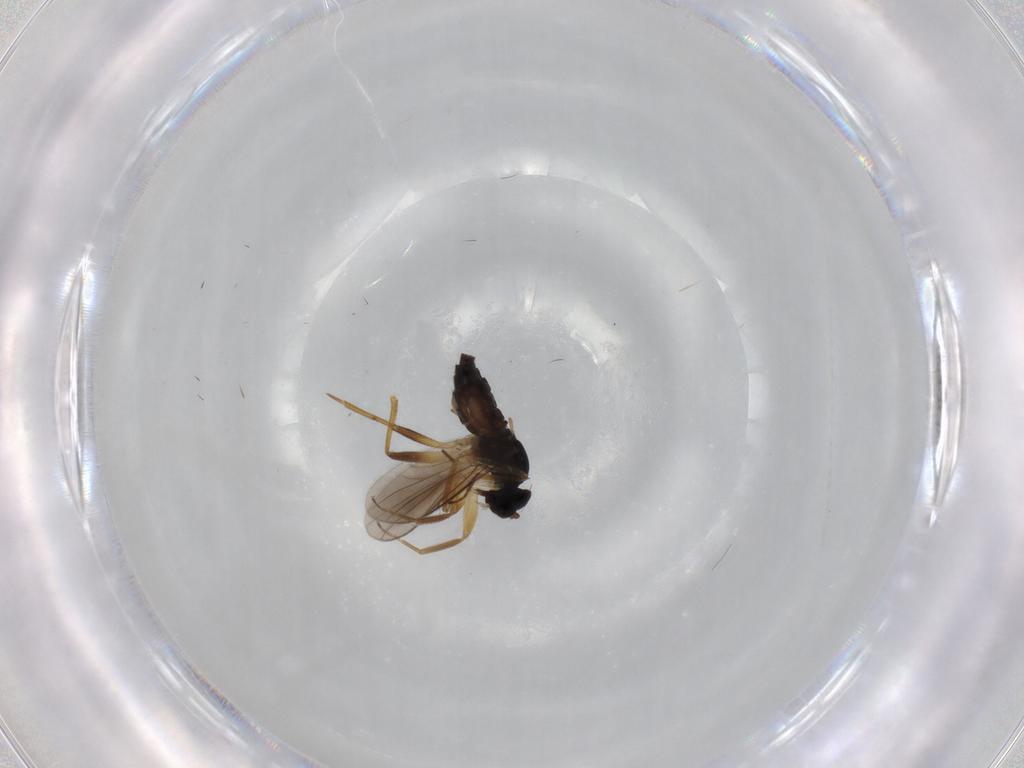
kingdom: Animalia
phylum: Arthropoda
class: Insecta
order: Diptera
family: Hybotidae
